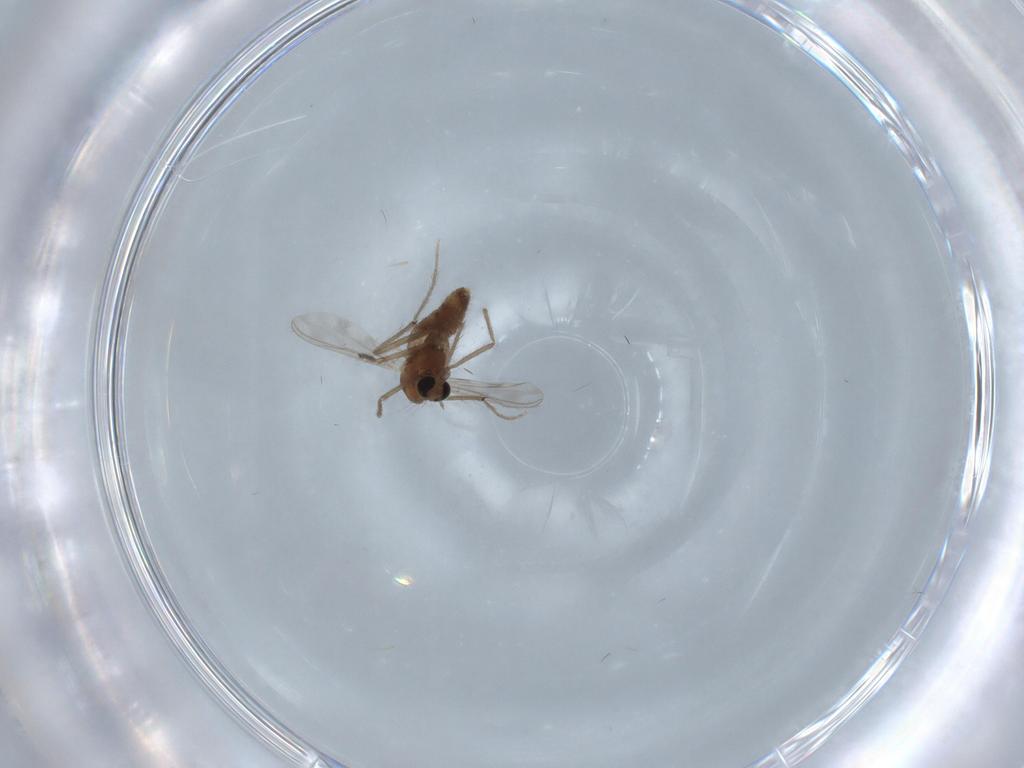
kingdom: Animalia
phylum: Arthropoda
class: Insecta
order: Diptera
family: Chironomidae
